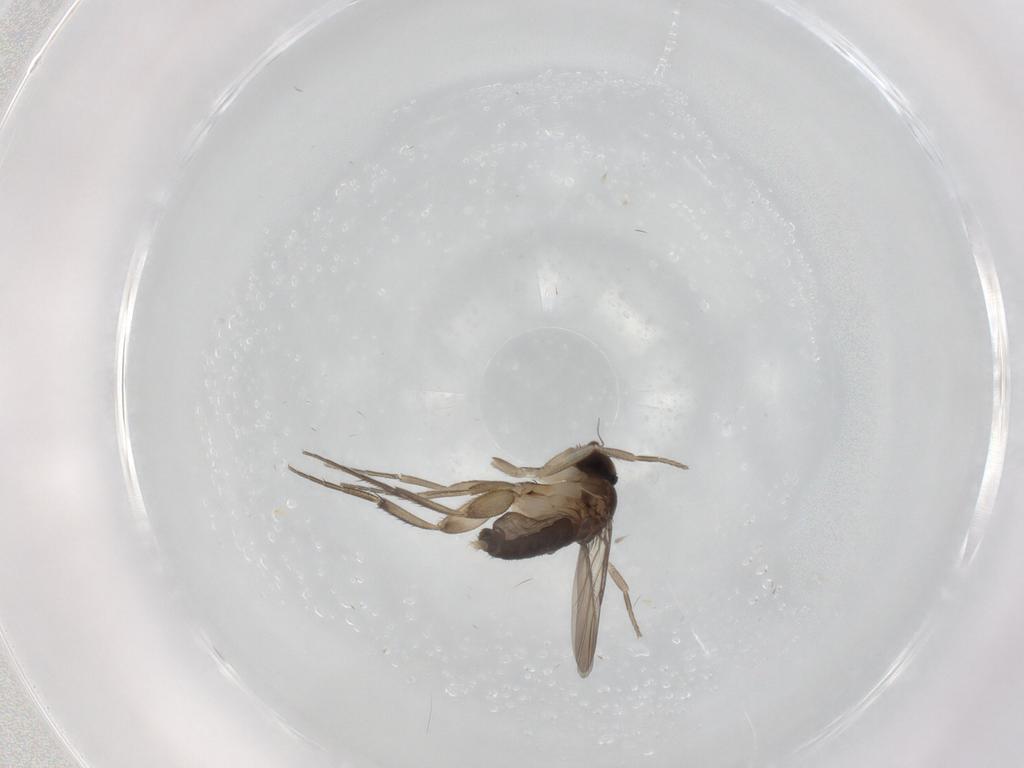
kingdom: Animalia
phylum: Arthropoda
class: Insecta
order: Diptera
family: Phoridae
